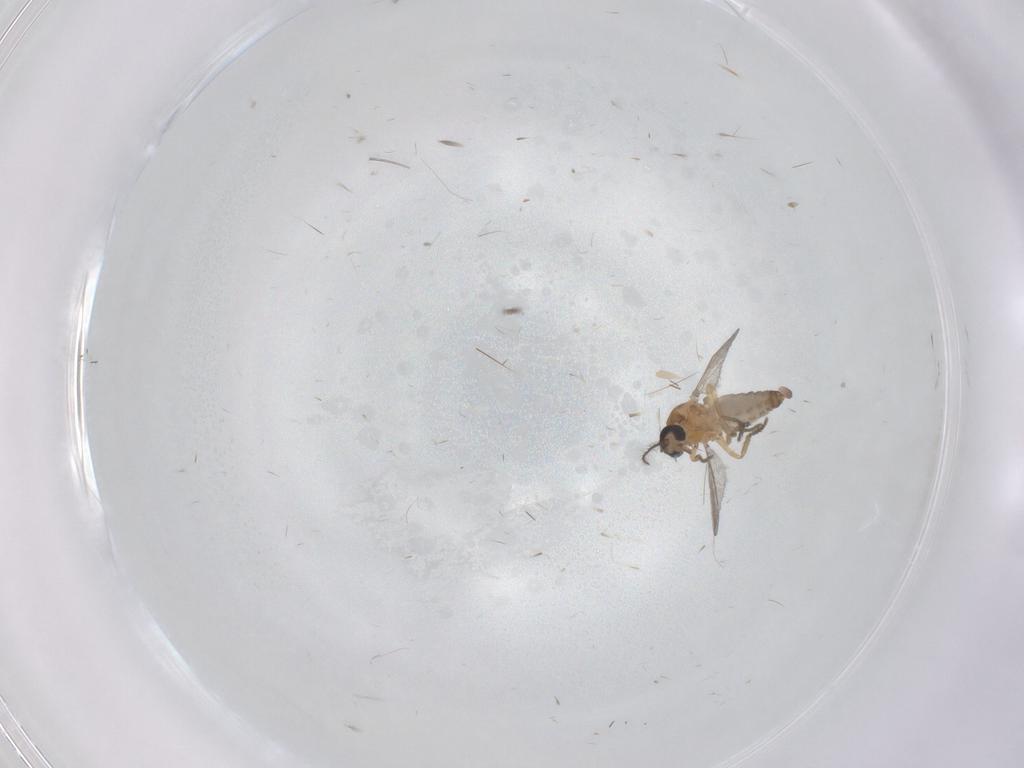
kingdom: Animalia
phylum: Arthropoda
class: Insecta
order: Diptera
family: Ceratopogonidae
